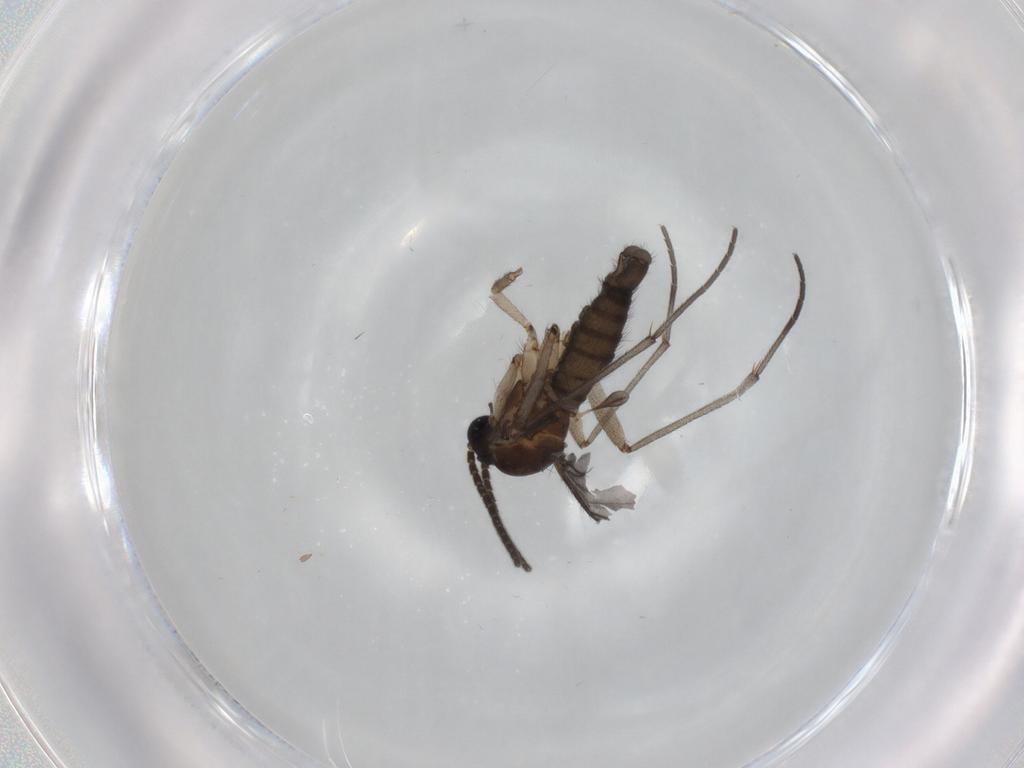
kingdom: Animalia
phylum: Arthropoda
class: Insecta
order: Diptera
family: Sciaridae
